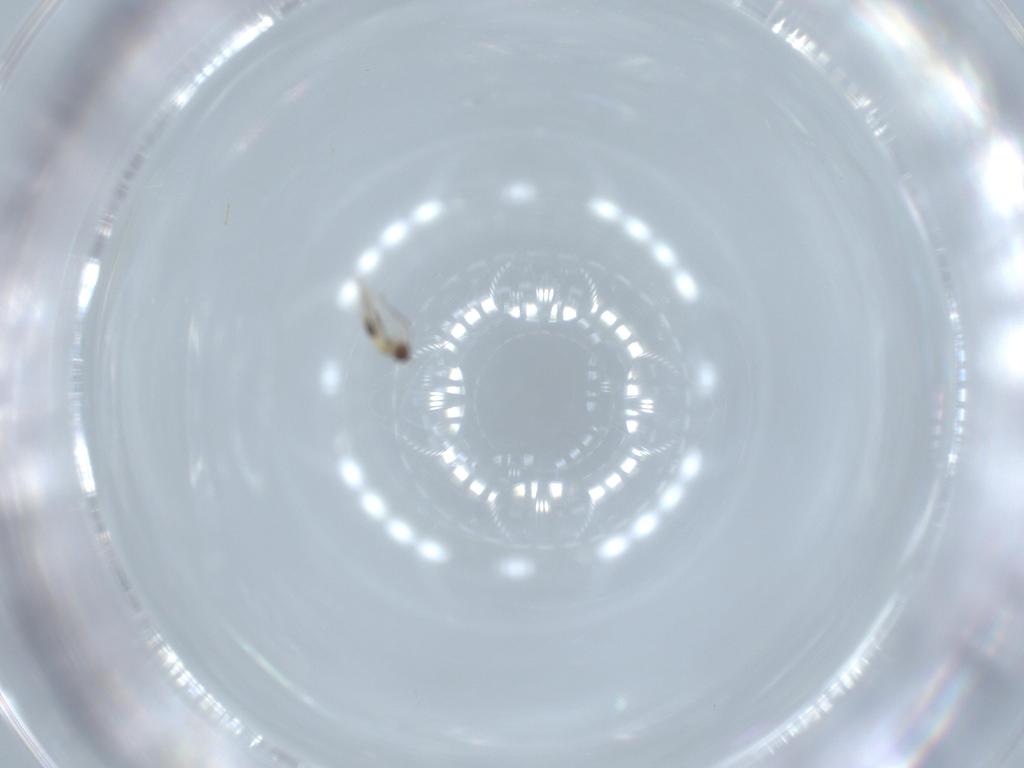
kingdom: Animalia
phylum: Arthropoda
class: Insecta
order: Hymenoptera
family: Mymaridae
